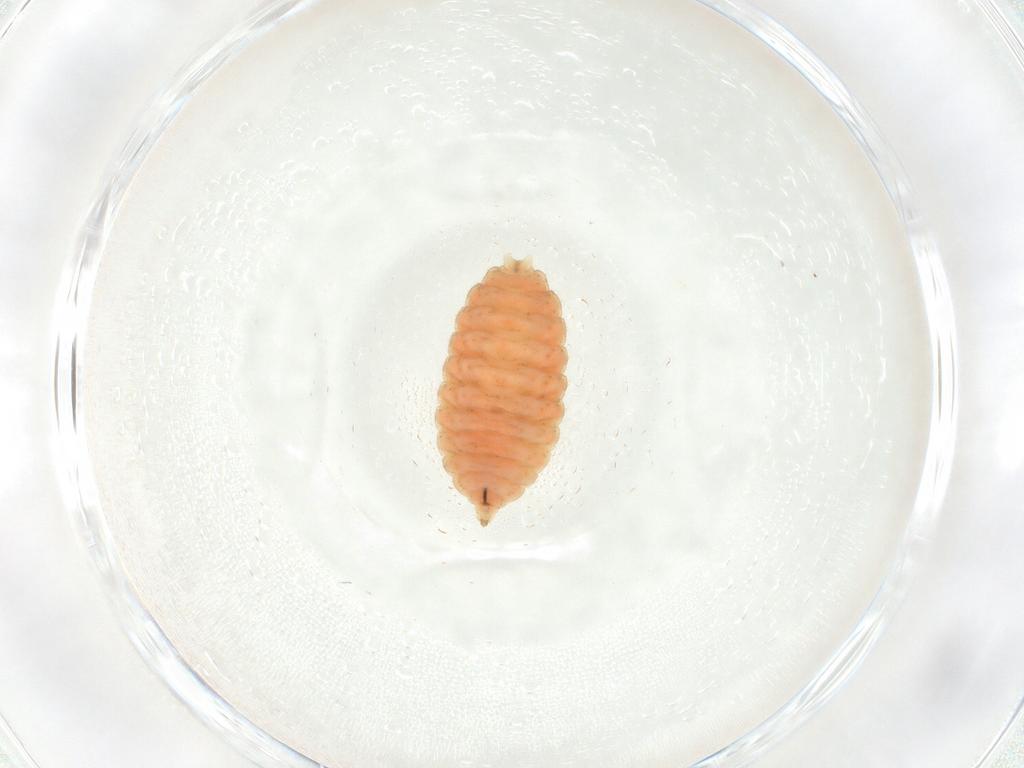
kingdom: Animalia
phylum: Arthropoda
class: Insecta
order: Diptera
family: Cecidomyiidae
